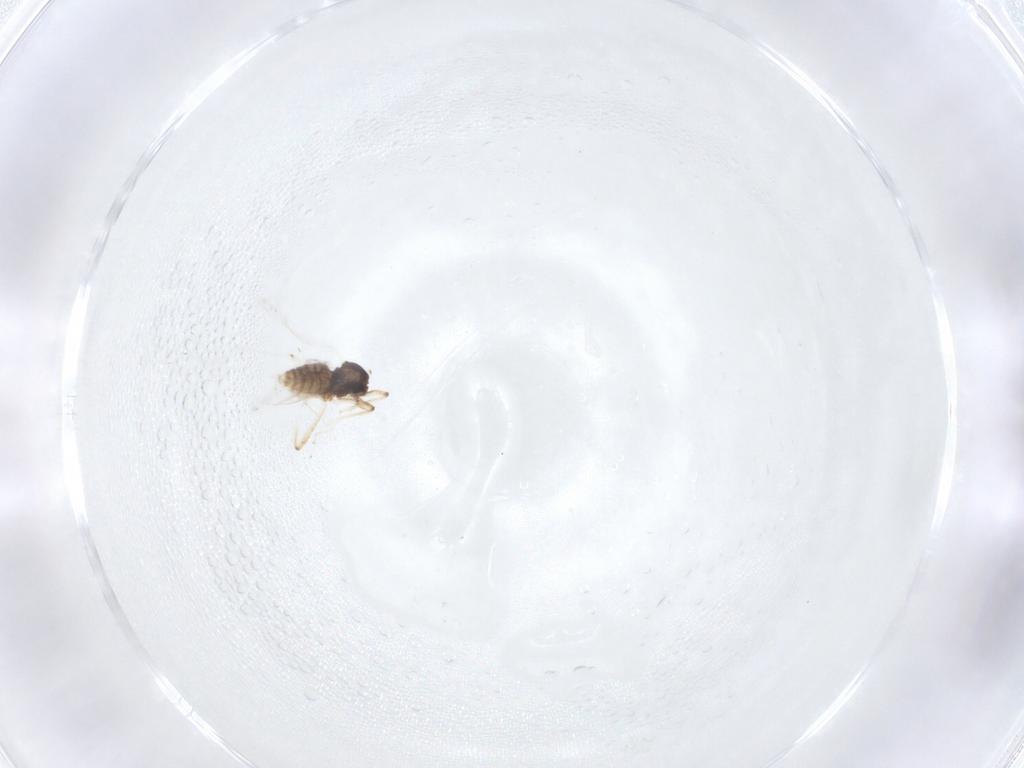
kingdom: Animalia
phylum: Arthropoda
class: Insecta
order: Diptera
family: Cecidomyiidae
